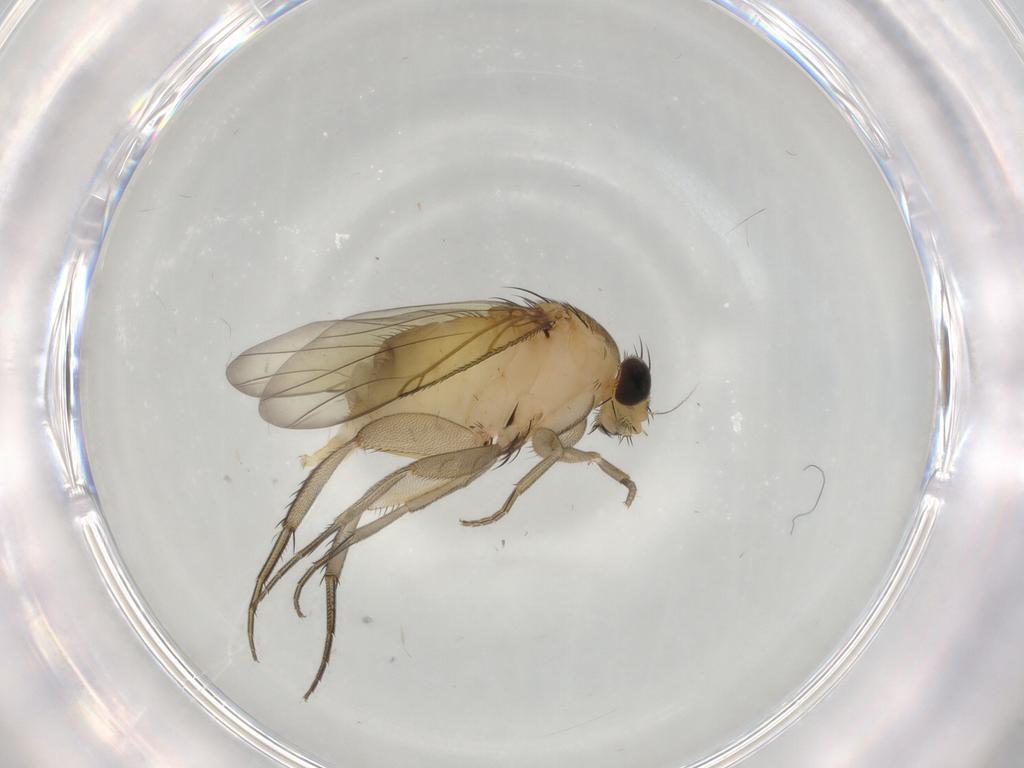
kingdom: Animalia
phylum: Arthropoda
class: Insecta
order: Diptera
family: Phoridae
